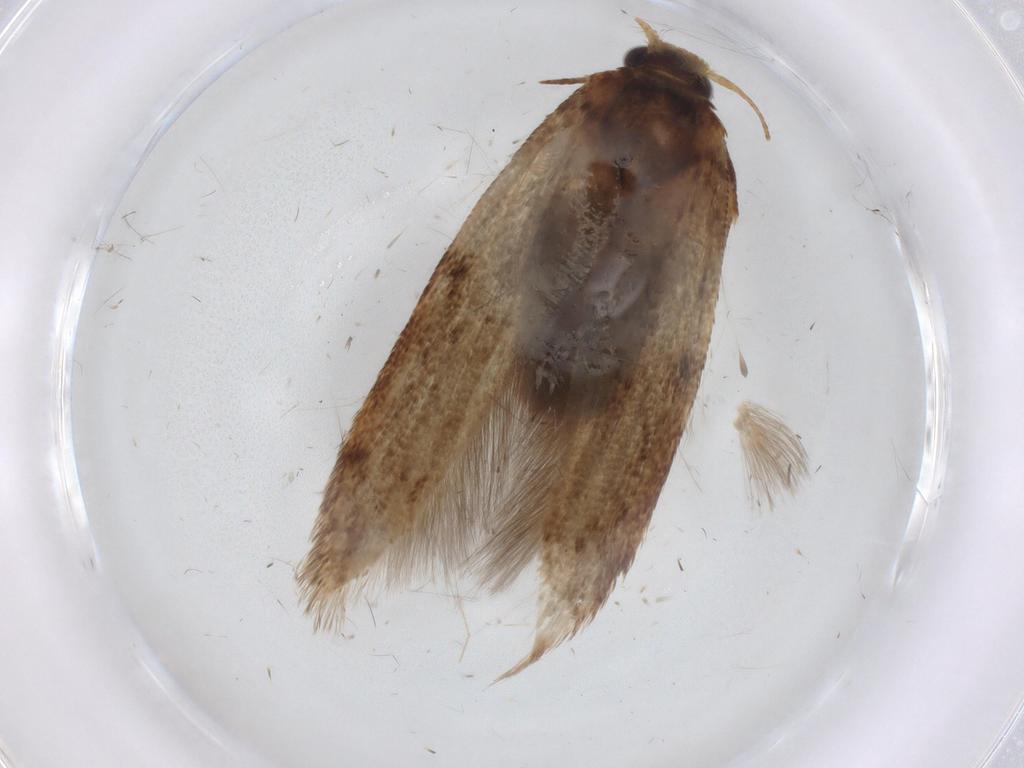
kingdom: Animalia
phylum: Arthropoda
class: Insecta
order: Lepidoptera
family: Blastobasidae
